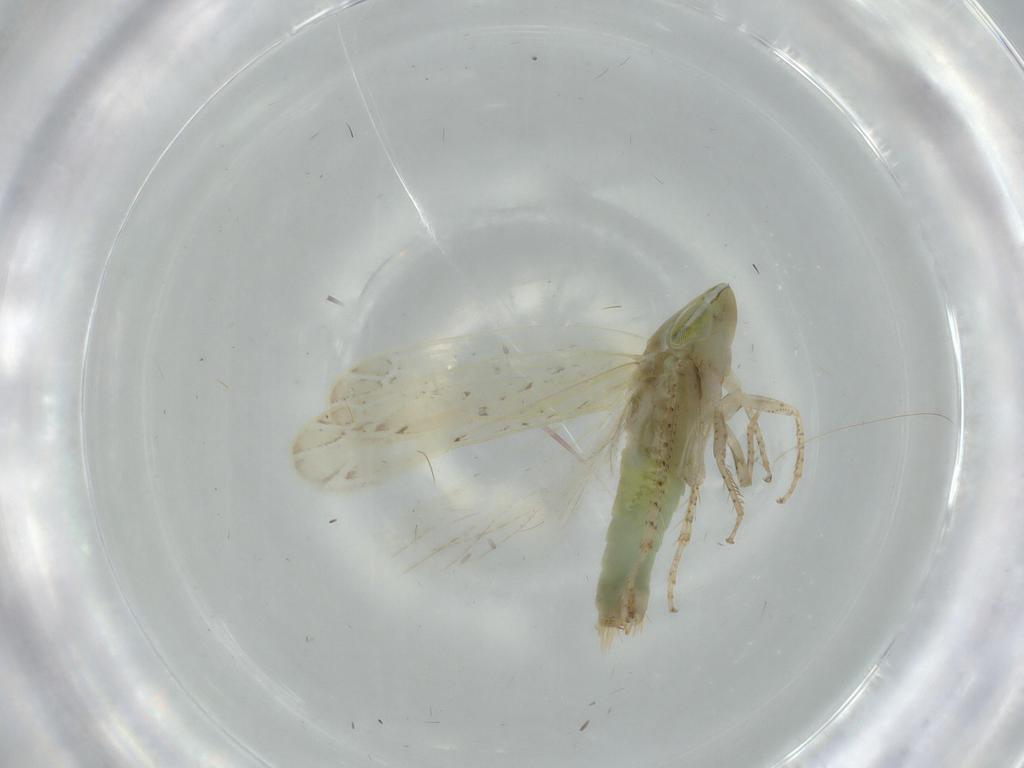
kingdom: Animalia
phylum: Arthropoda
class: Insecta
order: Hemiptera
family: Cicadellidae
